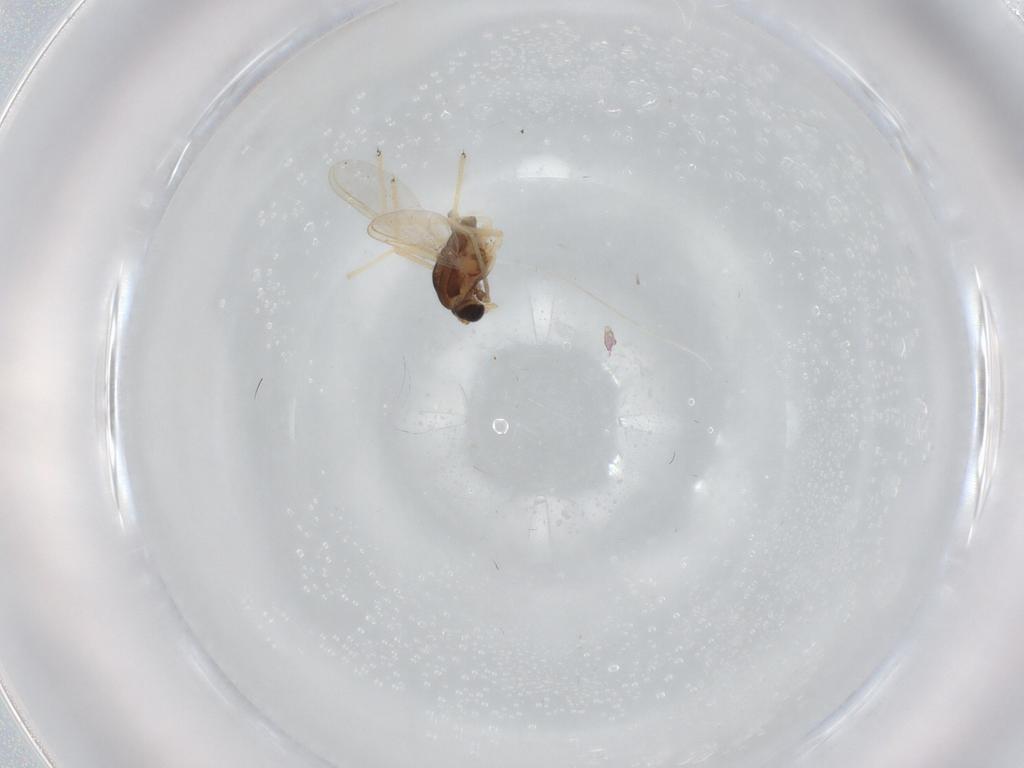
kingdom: Animalia
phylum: Arthropoda
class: Insecta
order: Diptera
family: Chironomidae
